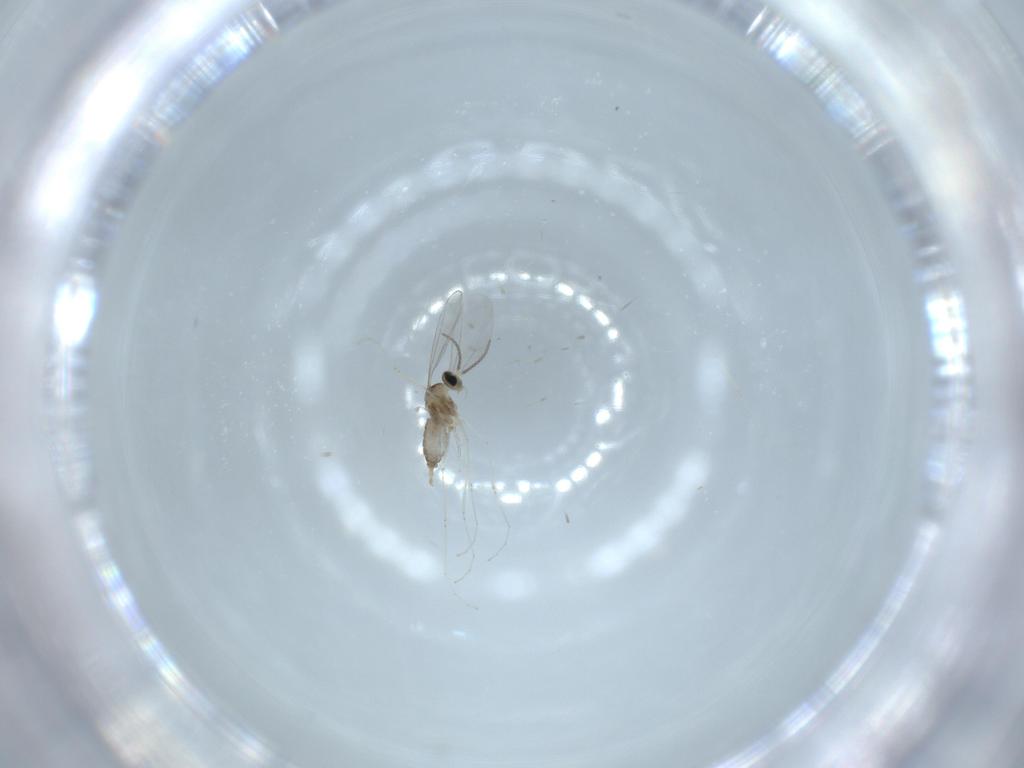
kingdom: Animalia
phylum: Arthropoda
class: Insecta
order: Diptera
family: Cecidomyiidae
